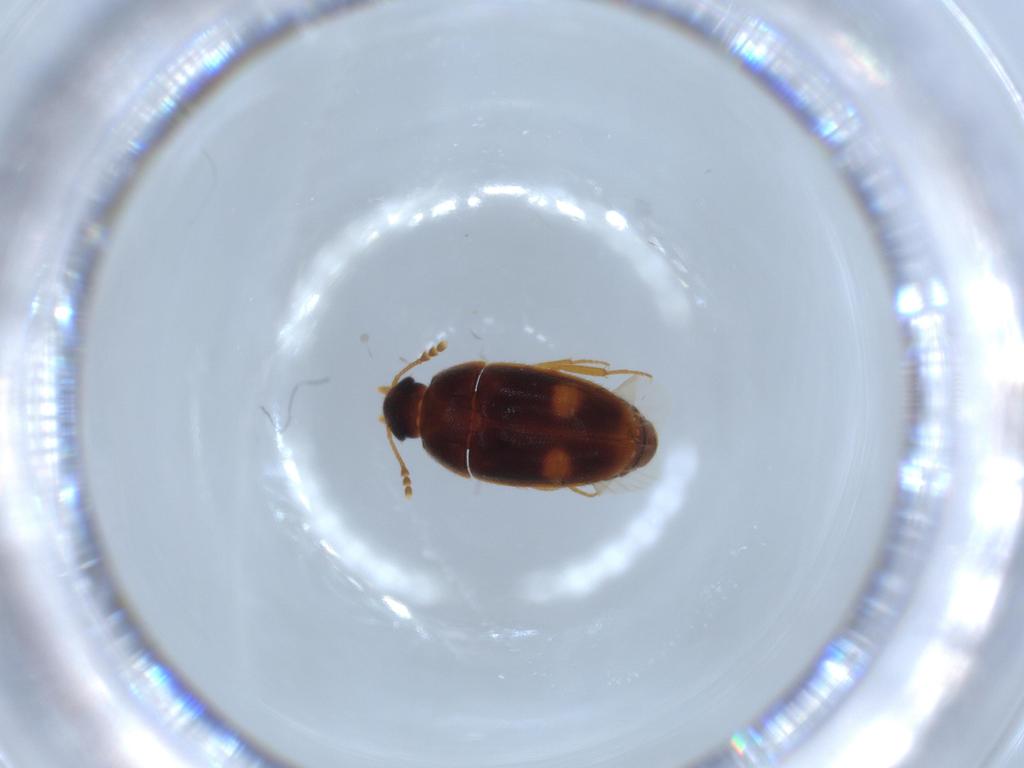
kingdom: Animalia
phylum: Arthropoda
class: Insecta
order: Coleoptera
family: Scraptiidae
